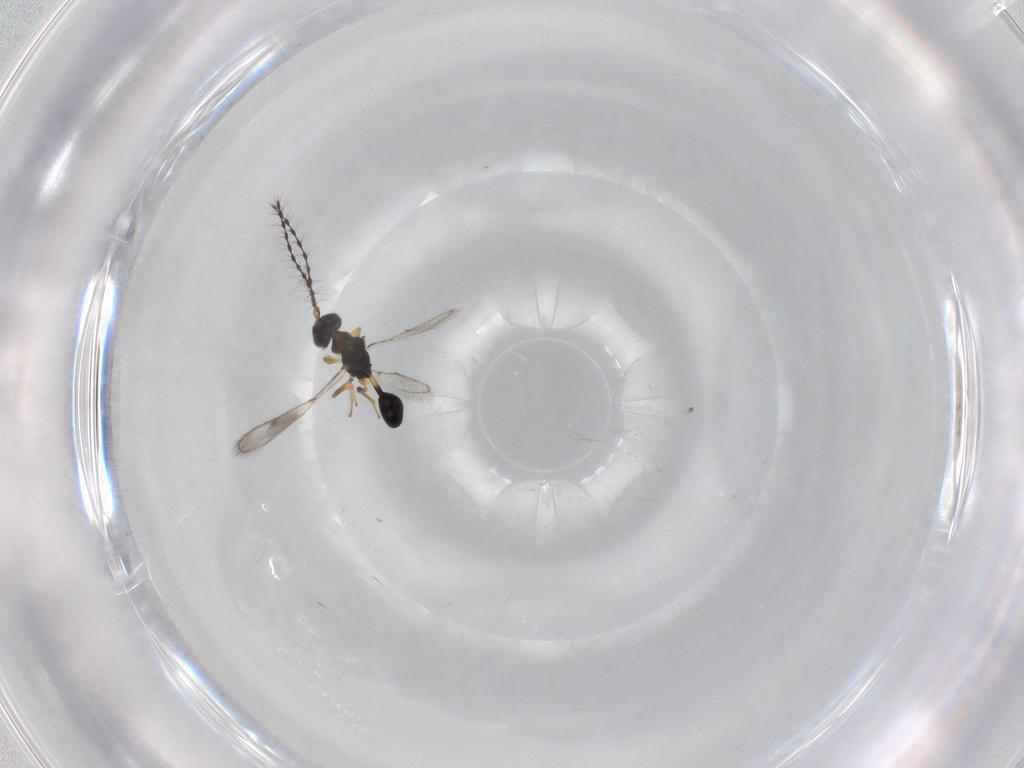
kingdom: Animalia
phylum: Arthropoda
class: Insecta
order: Hymenoptera
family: Diparidae
